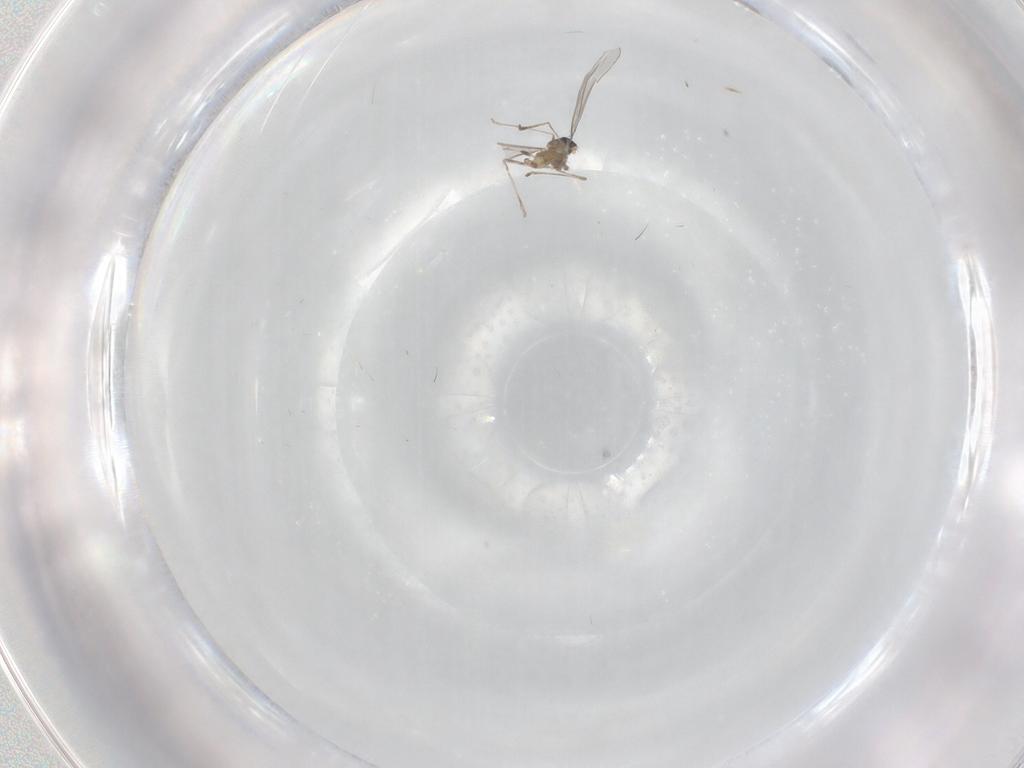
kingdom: Animalia
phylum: Arthropoda
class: Insecta
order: Diptera
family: Cecidomyiidae
